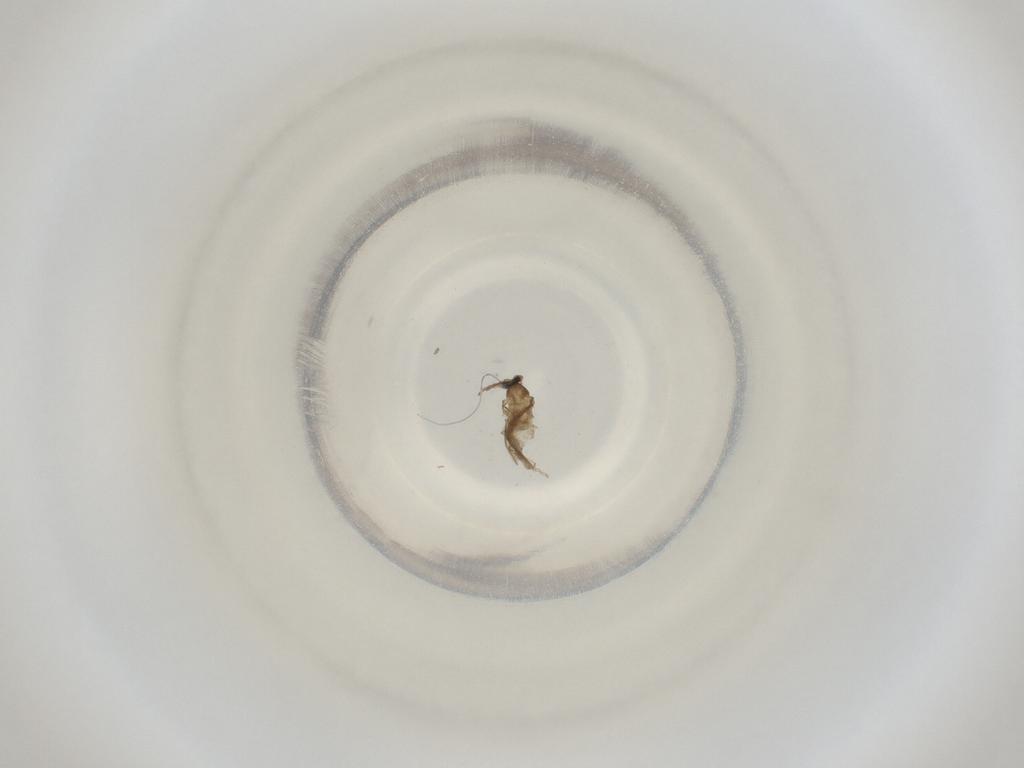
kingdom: Animalia
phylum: Arthropoda
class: Insecta
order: Diptera
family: Cecidomyiidae
